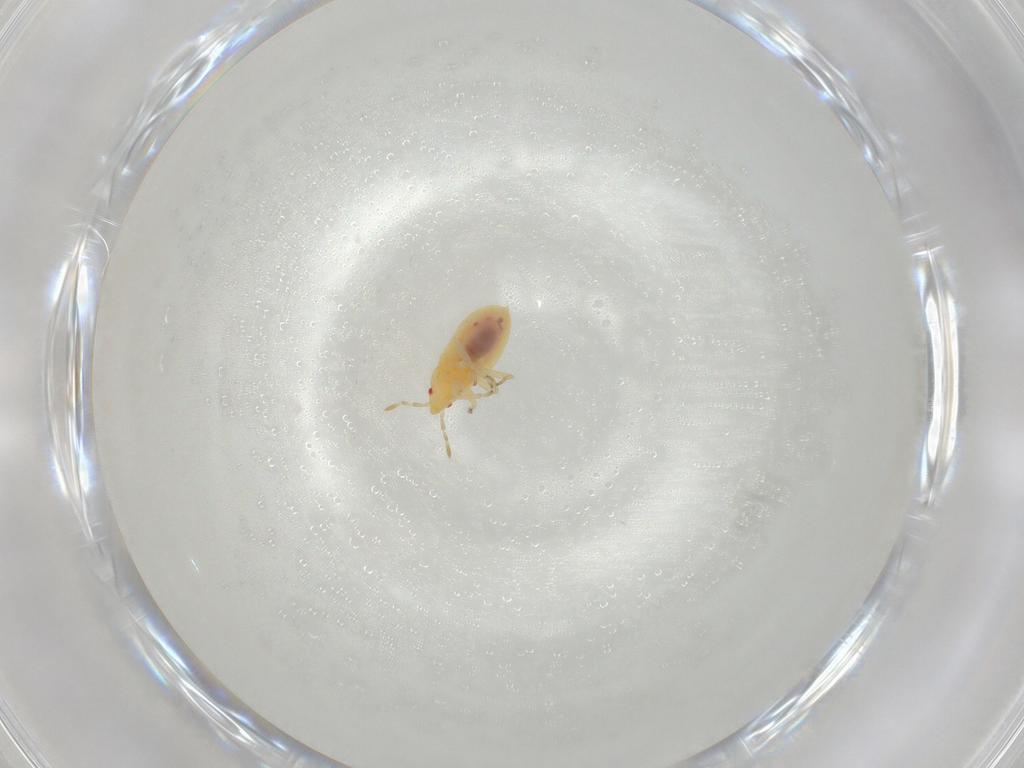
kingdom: Animalia
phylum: Arthropoda
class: Insecta
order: Hemiptera
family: Anthocoridae
